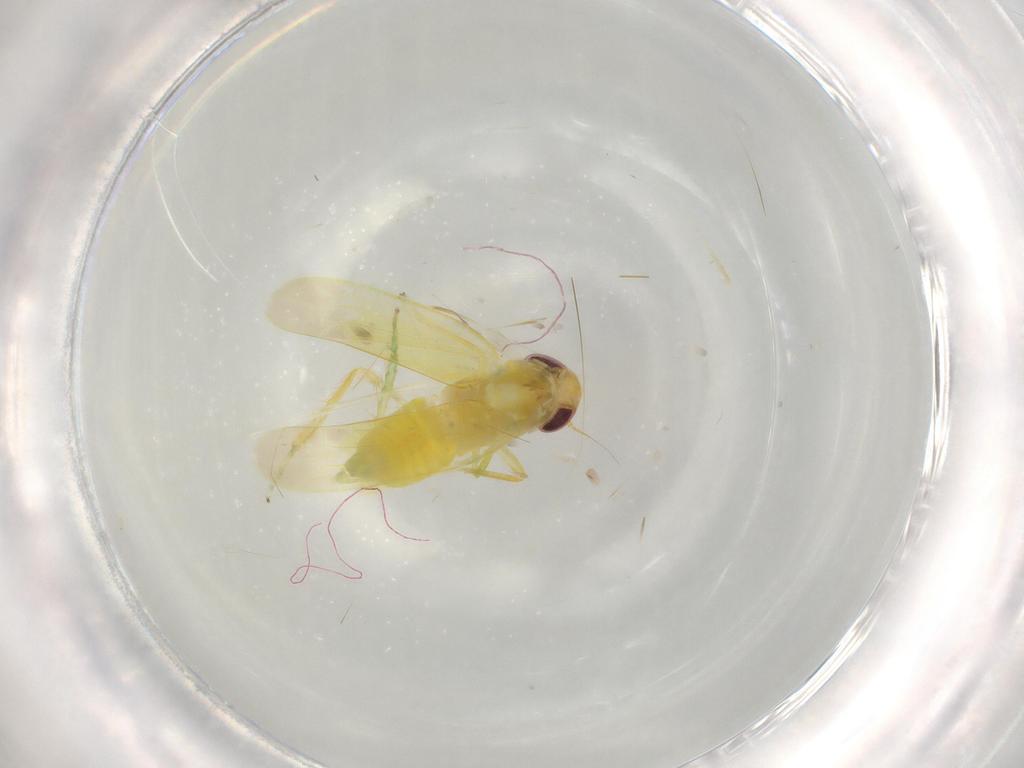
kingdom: Animalia
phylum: Arthropoda
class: Insecta
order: Hemiptera
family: Cicadellidae
